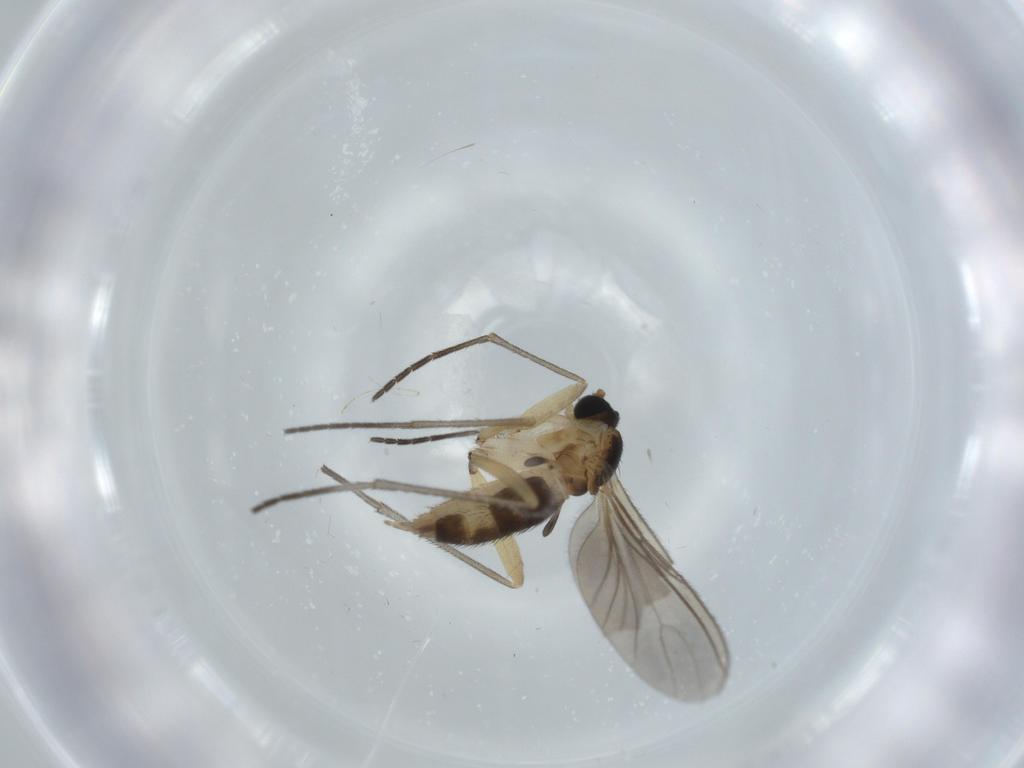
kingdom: Animalia
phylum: Arthropoda
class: Insecta
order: Diptera
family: Sciaridae
